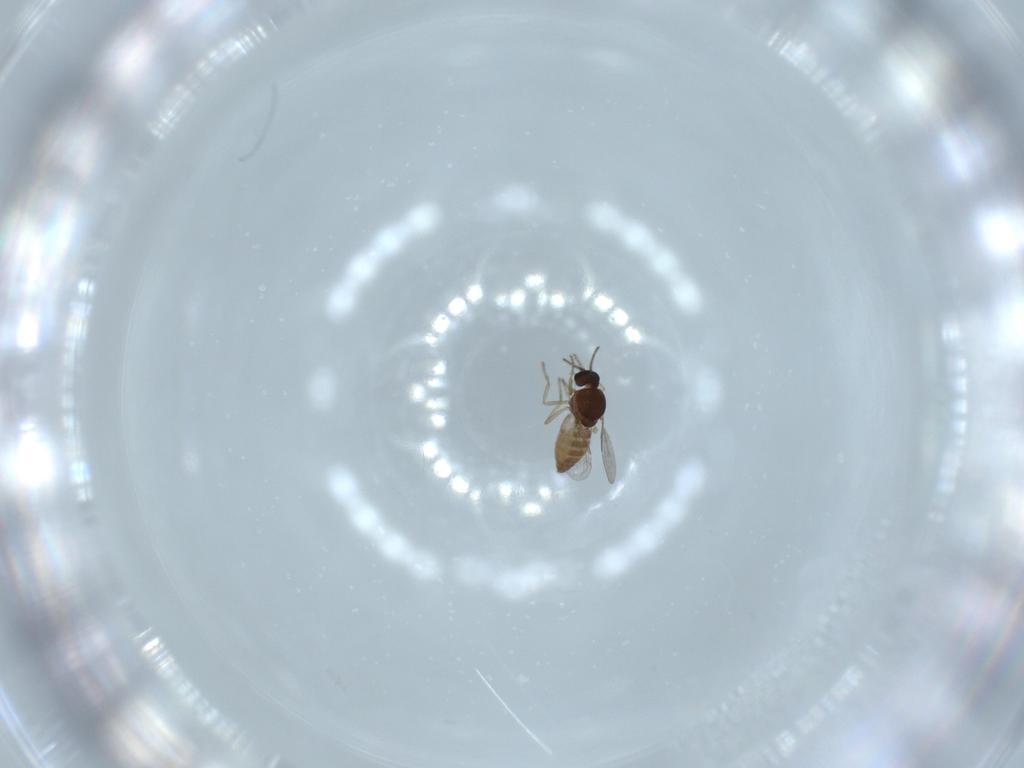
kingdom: Animalia
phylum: Arthropoda
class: Insecta
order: Diptera
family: Ceratopogonidae
